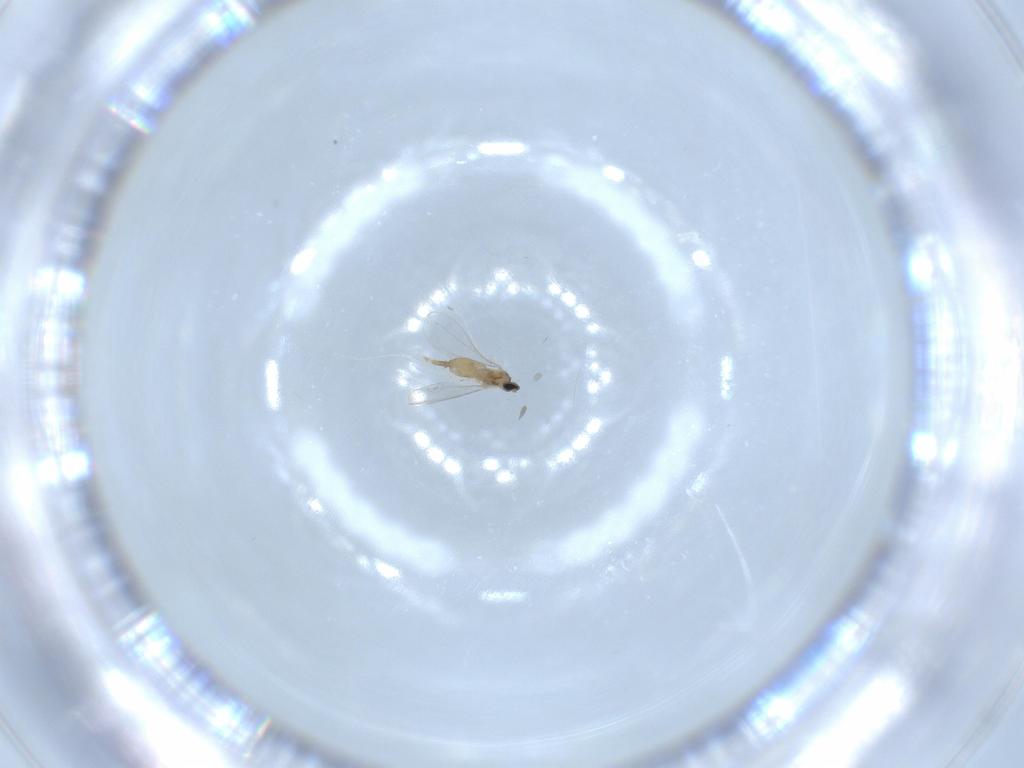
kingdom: Animalia
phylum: Arthropoda
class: Insecta
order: Diptera
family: Cecidomyiidae
